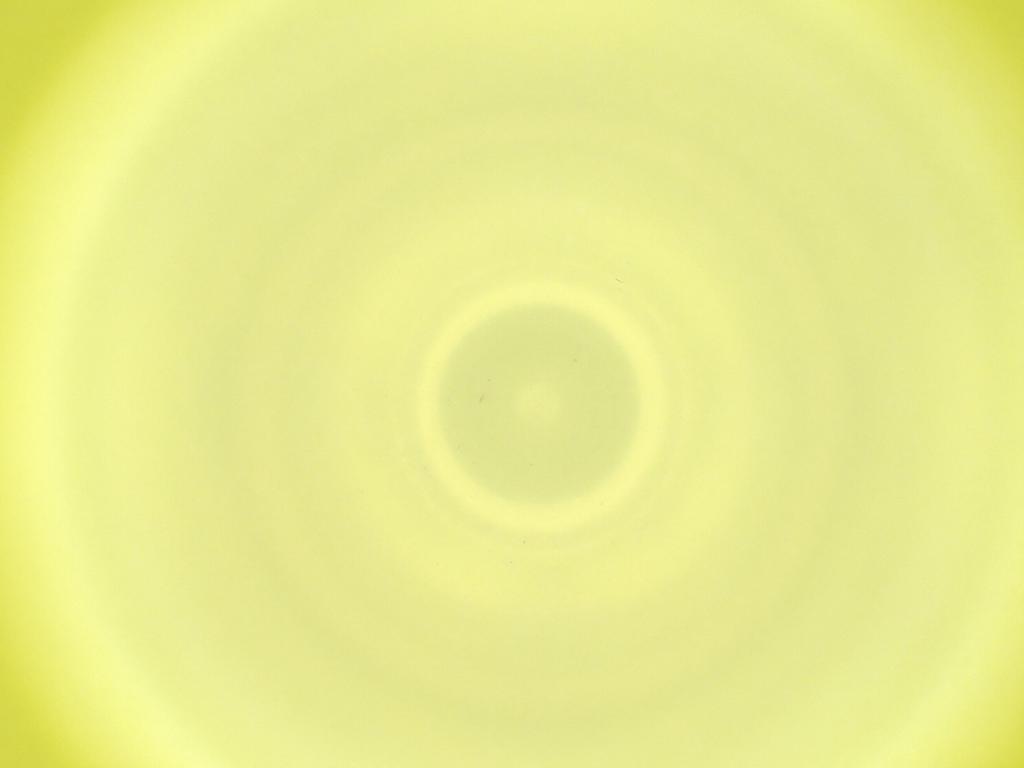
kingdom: Animalia
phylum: Arthropoda
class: Insecta
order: Diptera
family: Cecidomyiidae
